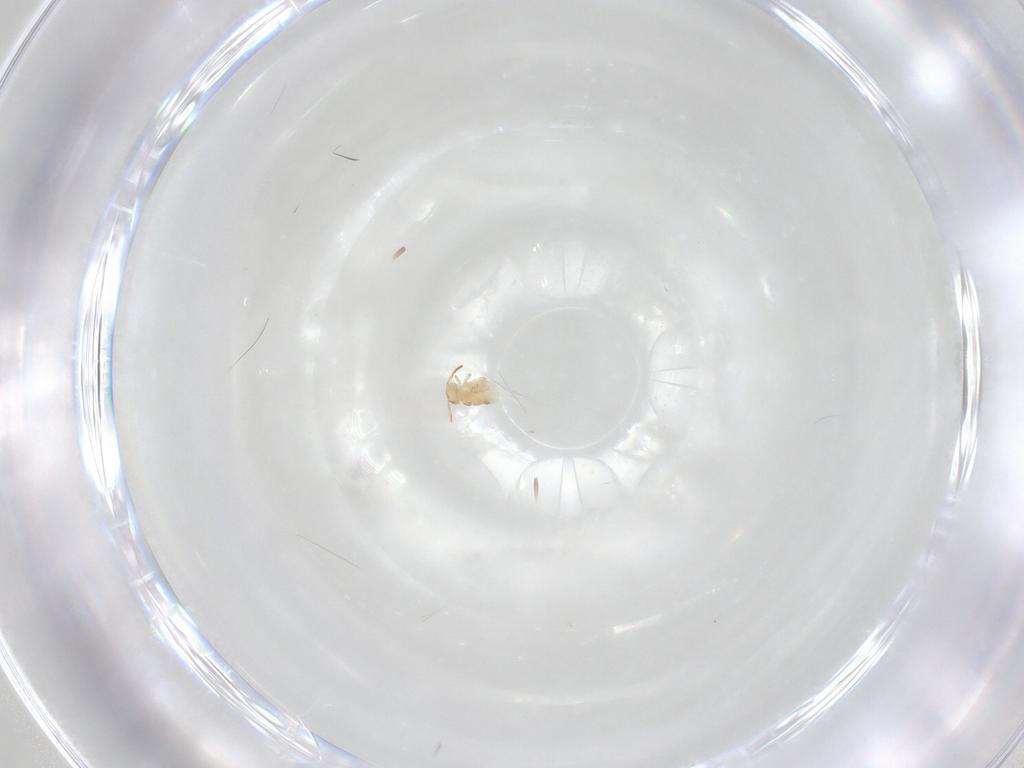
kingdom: Animalia
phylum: Arthropoda
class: Collembola
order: Symphypleona
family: Bourletiellidae
